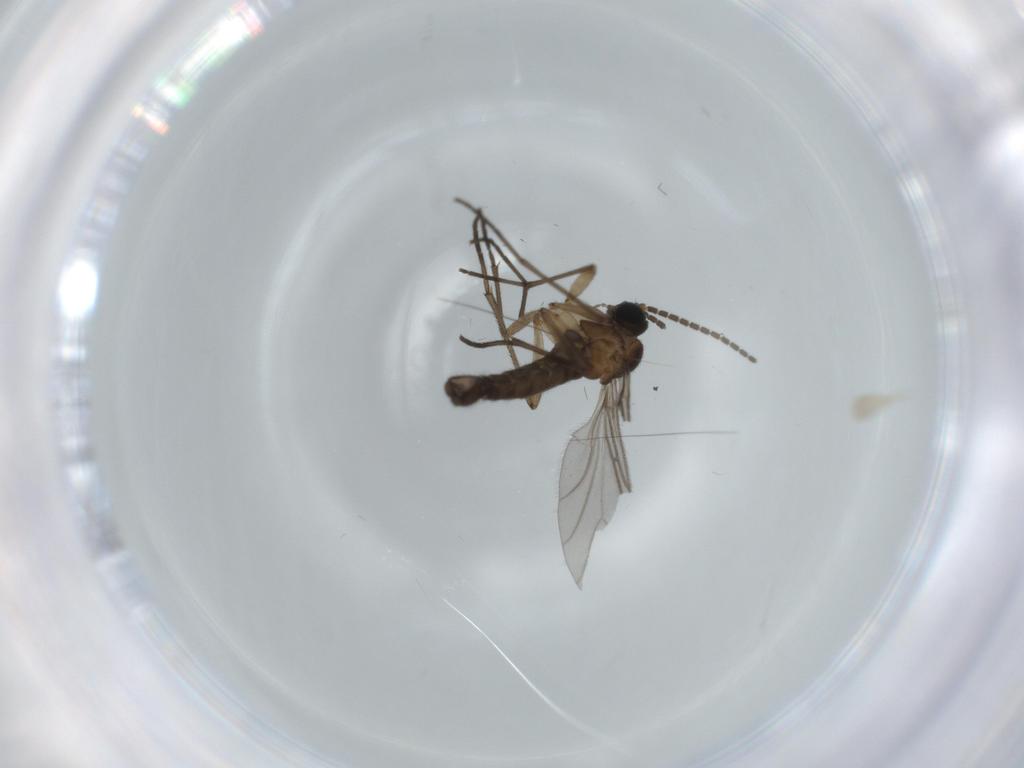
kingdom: Animalia
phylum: Arthropoda
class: Insecta
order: Diptera
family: Sciaridae
